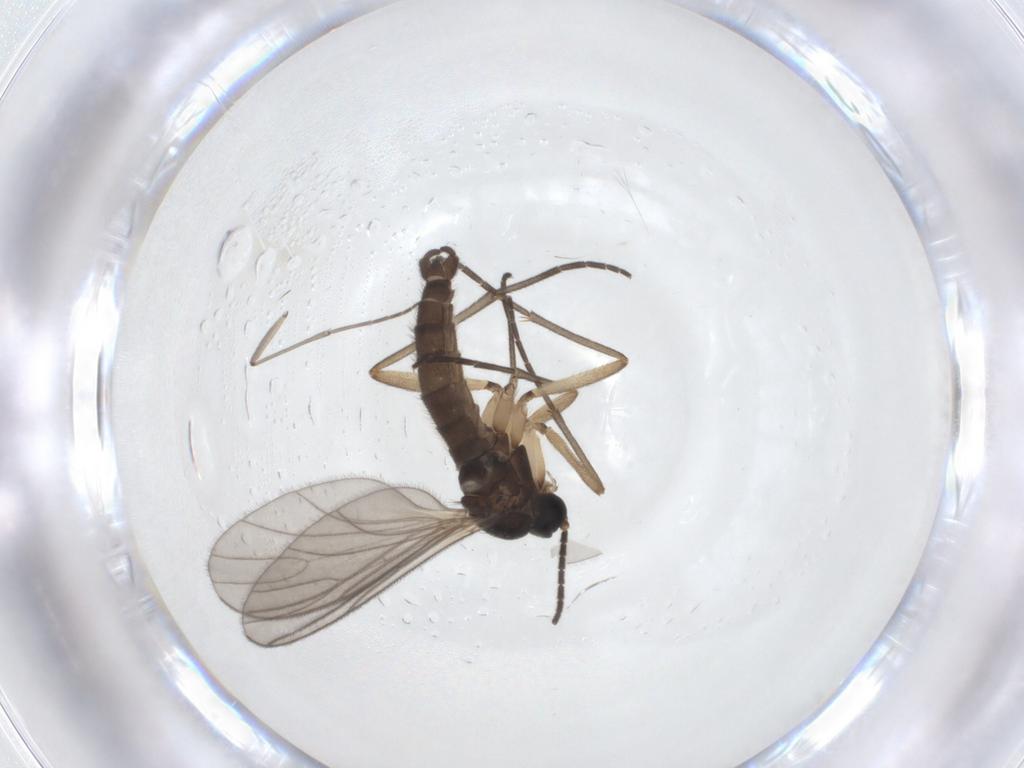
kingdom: Animalia
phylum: Arthropoda
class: Insecta
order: Diptera
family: Sciaridae
